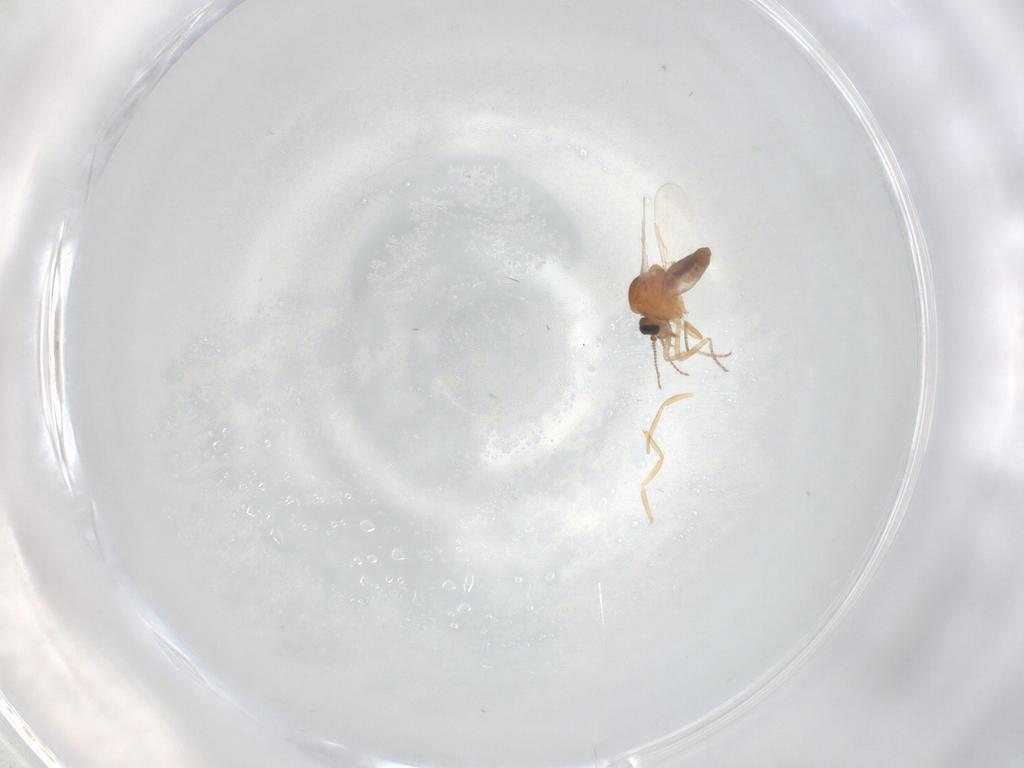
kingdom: Animalia
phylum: Arthropoda
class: Insecta
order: Diptera
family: Ceratopogonidae
